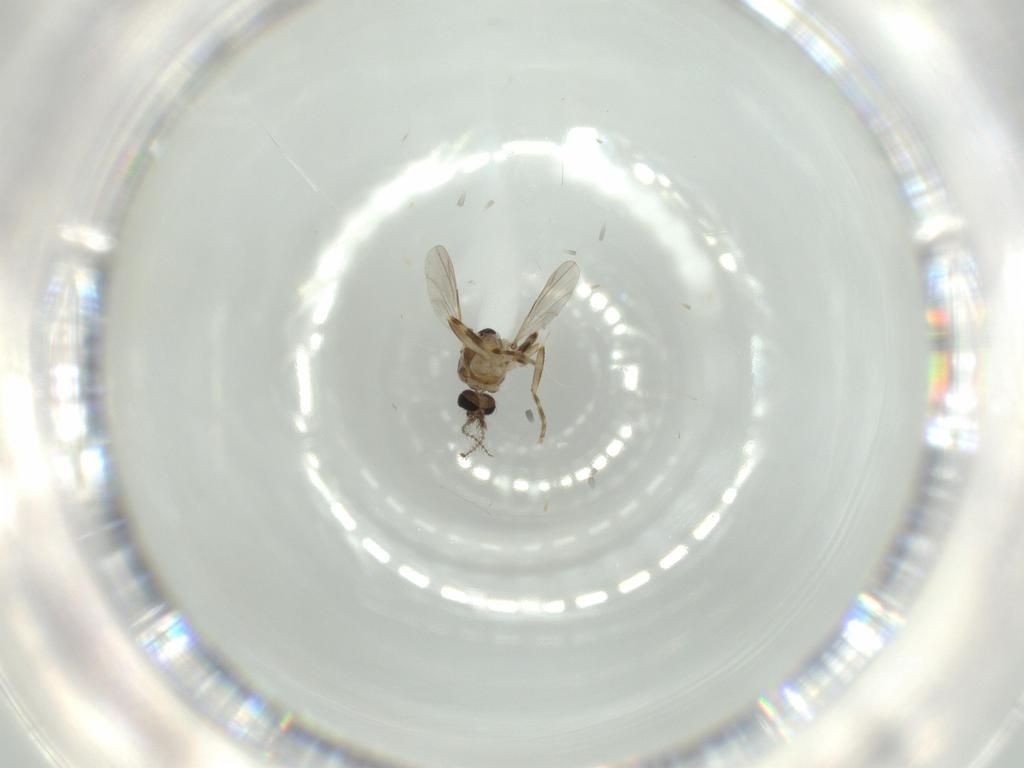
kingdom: Animalia
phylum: Arthropoda
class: Insecta
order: Diptera
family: Ceratopogonidae
